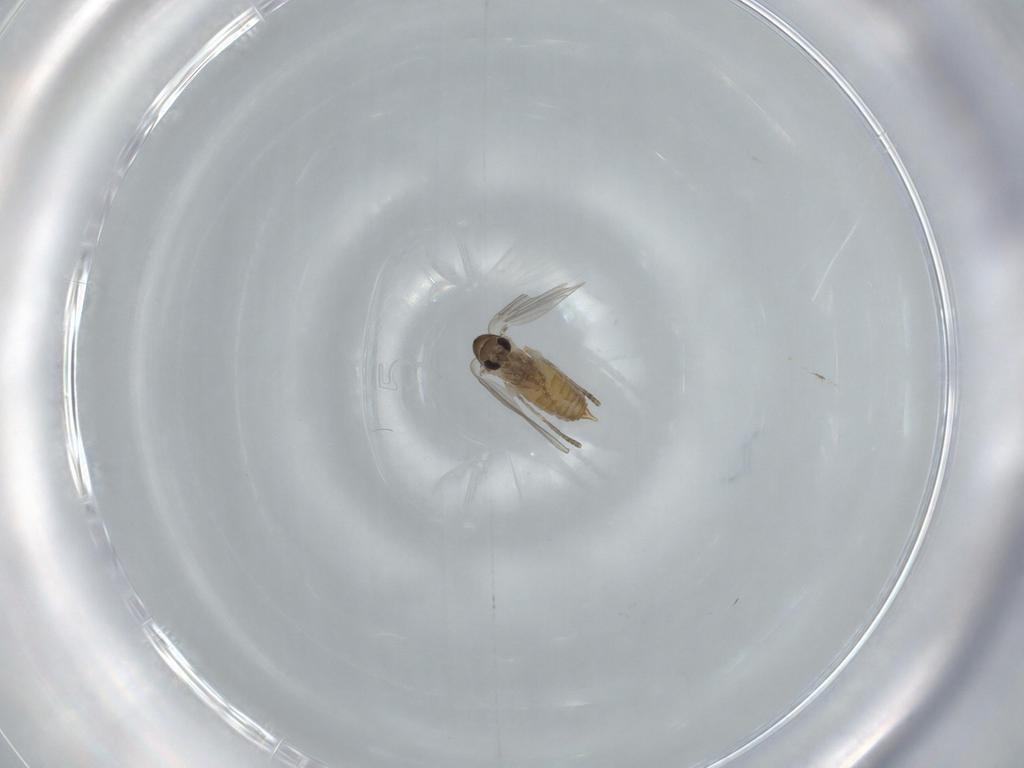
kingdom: Animalia
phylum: Arthropoda
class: Insecta
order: Diptera
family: Psychodidae
